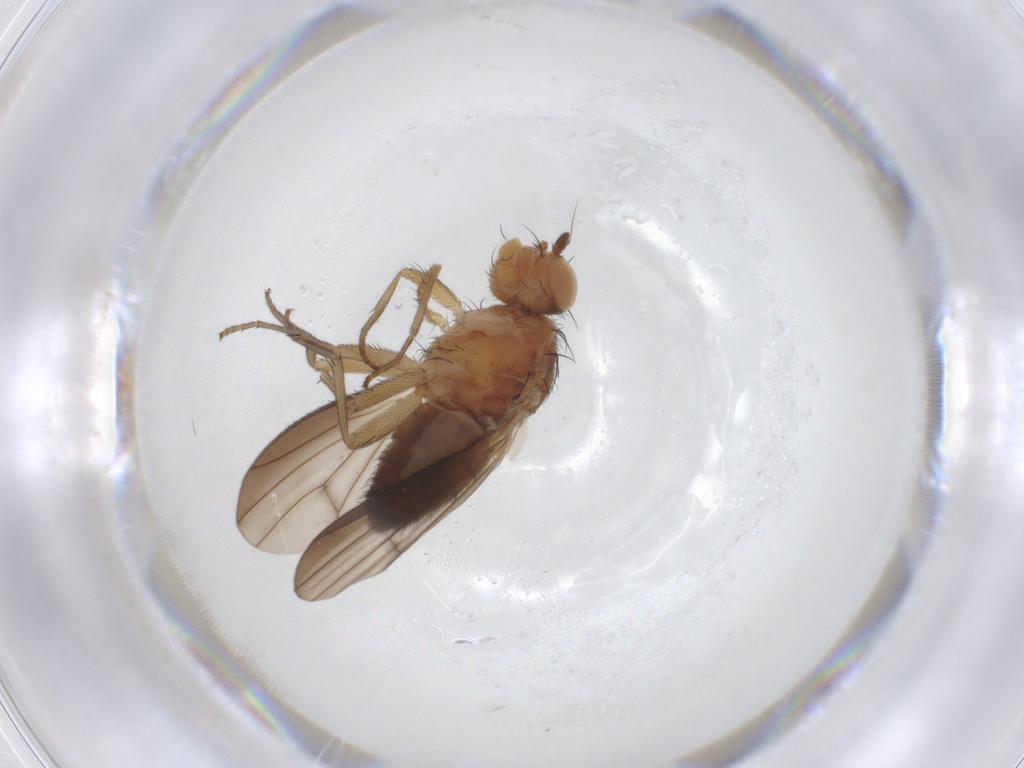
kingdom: Animalia
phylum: Arthropoda
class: Insecta
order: Diptera
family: Heleomyzidae
